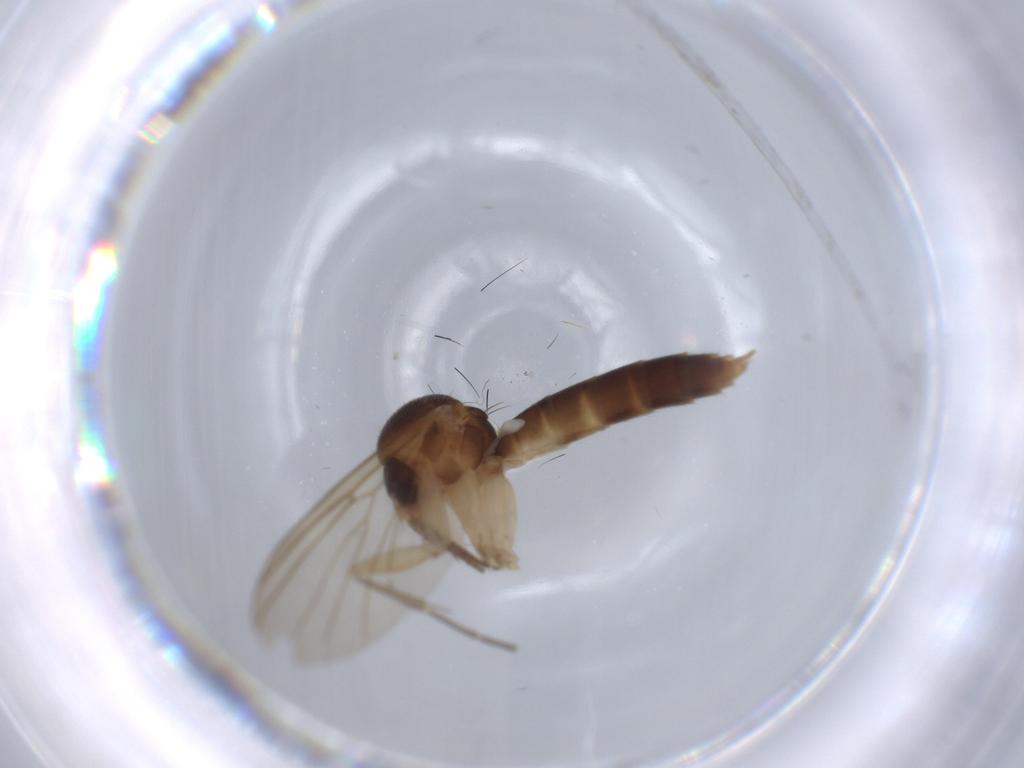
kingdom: Animalia
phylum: Arthropoda
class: Insecta
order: Diptera
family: Mycetophilidae
